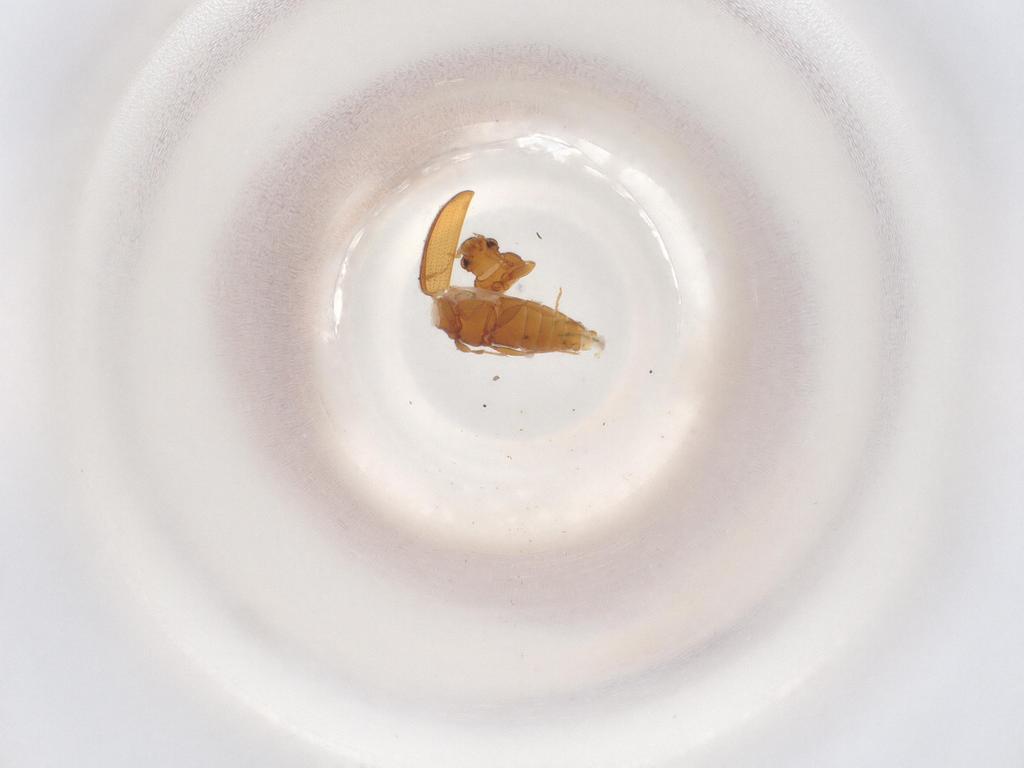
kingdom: Animalia
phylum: Arthropoda
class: Insecta
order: Coleoptera
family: Latridiidae
